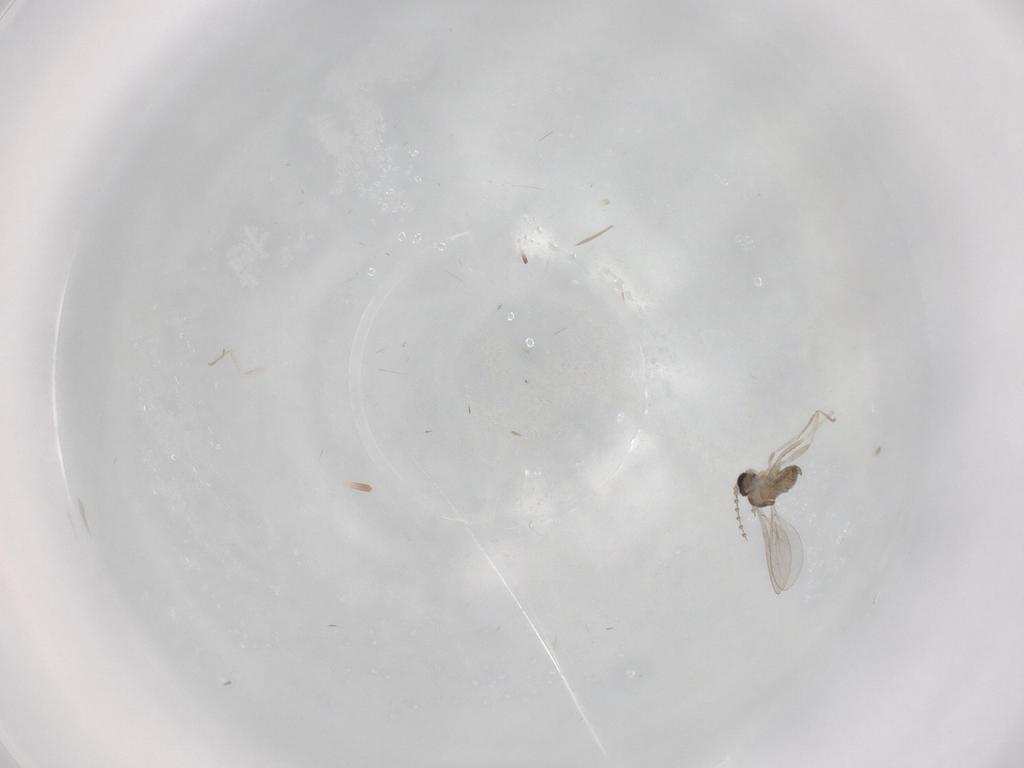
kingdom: Animalia
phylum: Arthropoda
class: Insecta
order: Diptera
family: Cecidomyiidae
